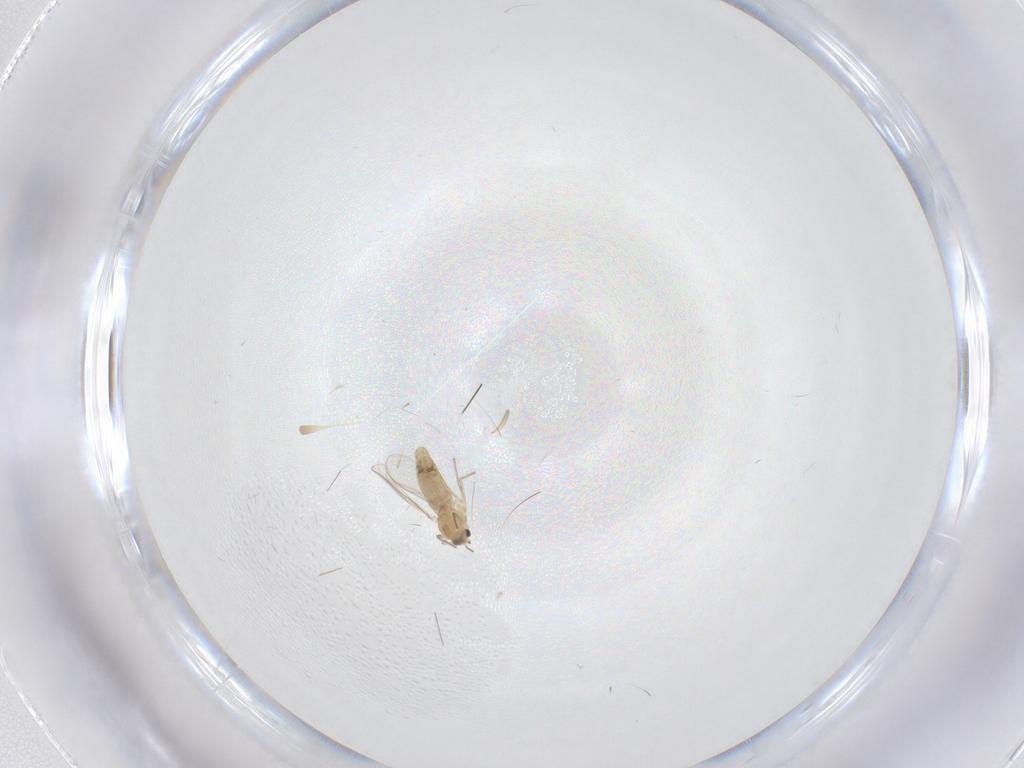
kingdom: Animalia
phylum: Arthropoda
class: Insecta
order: Diptera
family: Chironomidae
